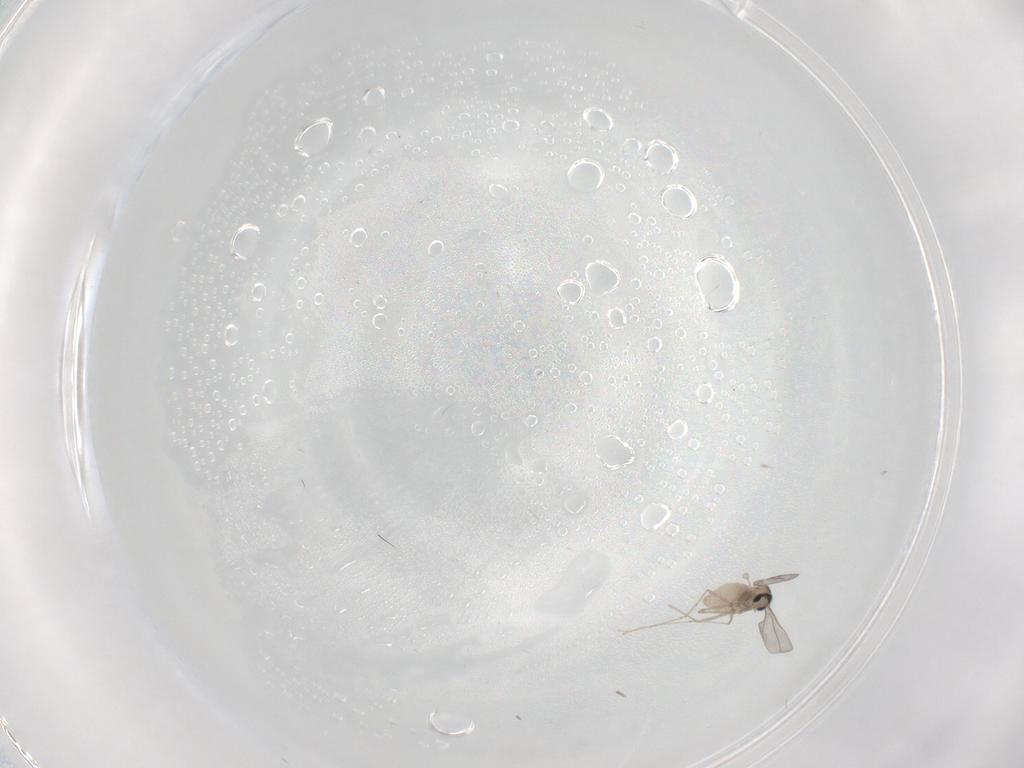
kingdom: Animalia
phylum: Arthropoda
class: Insecta
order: Diptera
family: Cecidomyiidae
